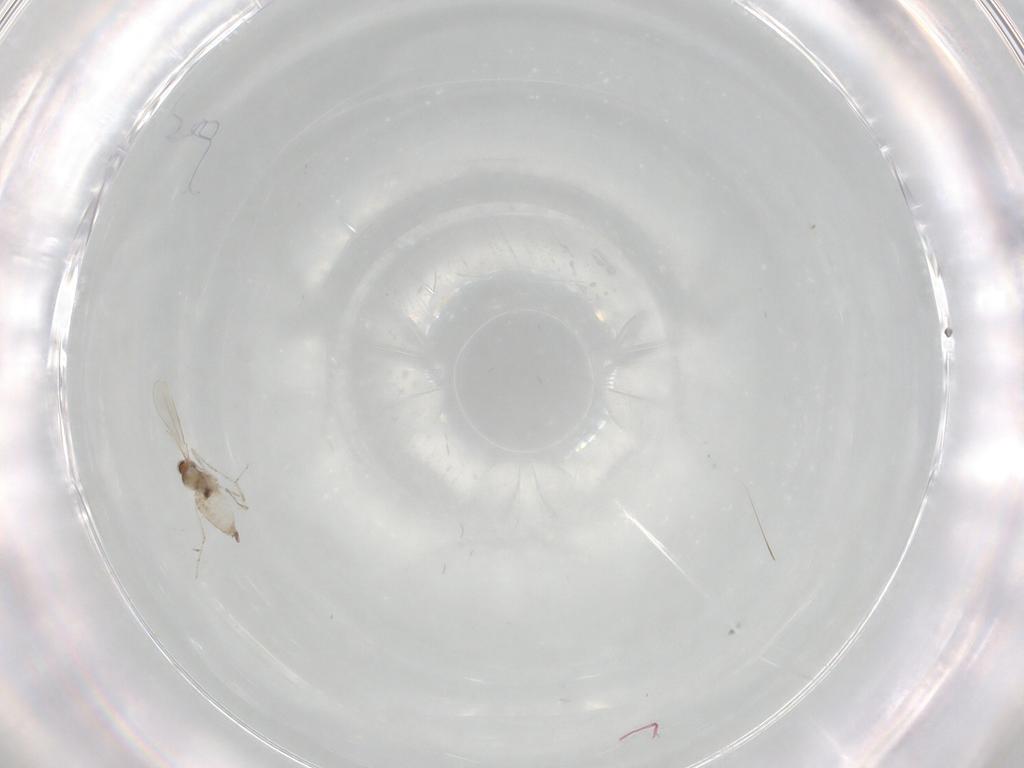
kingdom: Animalia
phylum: Arthropoda
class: Insecta
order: Diptera
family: Cecidomyiidae
